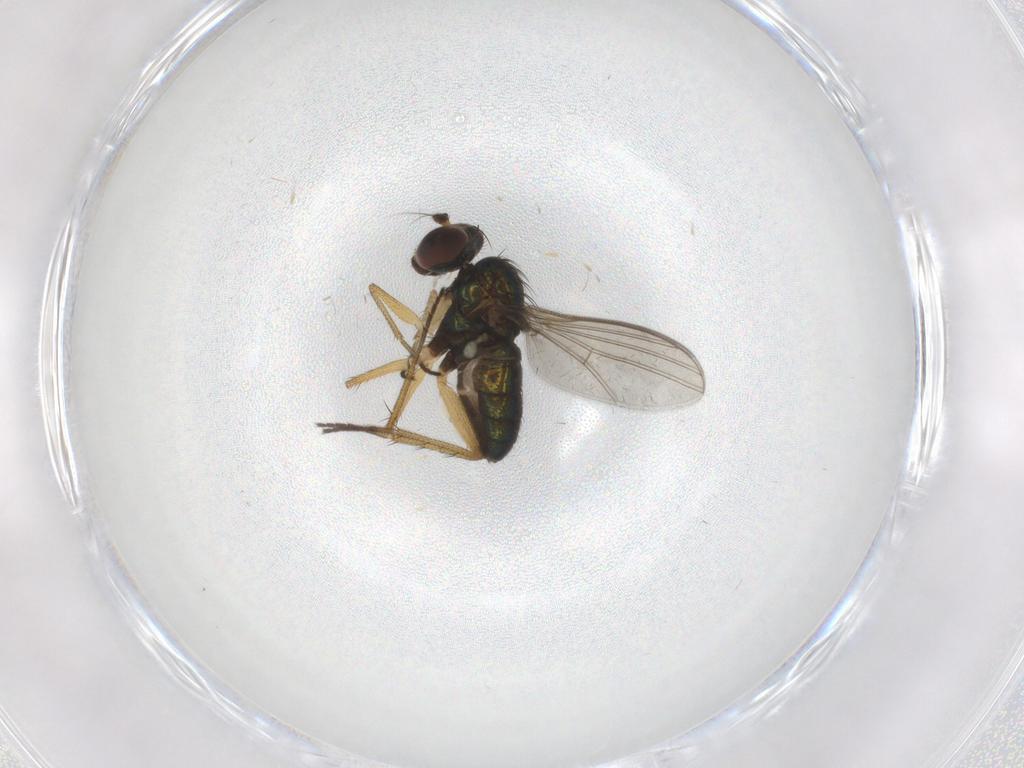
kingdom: Animalia
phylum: Arthropoda
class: Insecta
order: Diptera
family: Dolichopodidae
